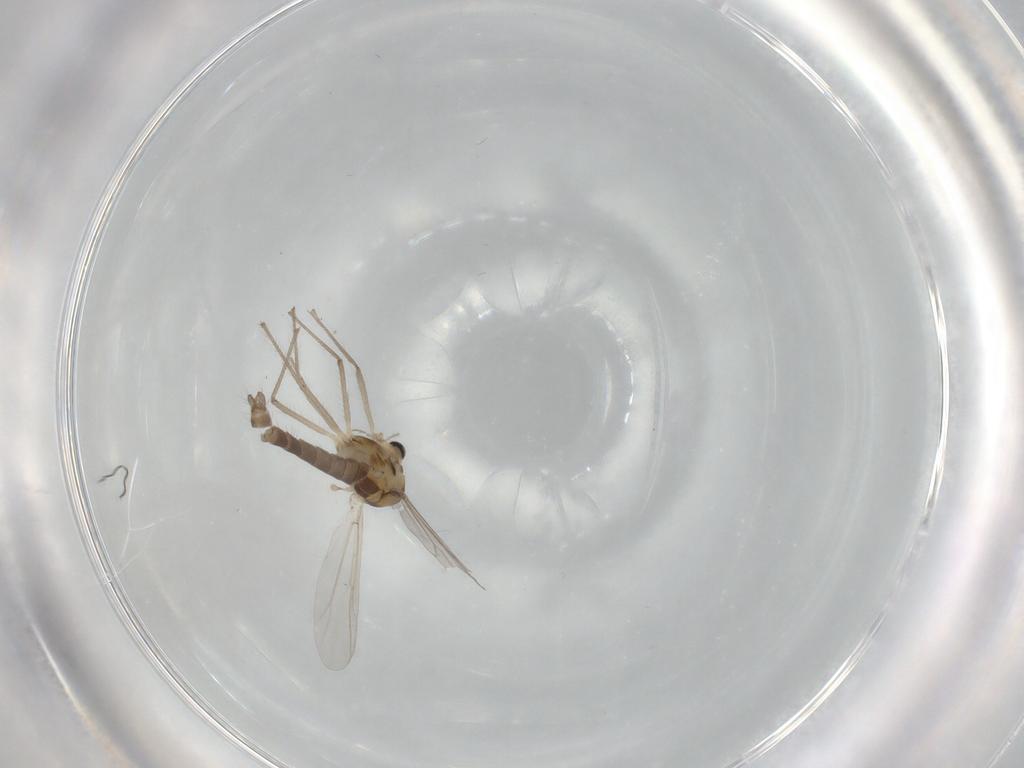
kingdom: Animalia
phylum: Arthropoda
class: Insecta
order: Diptera
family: Chironomidae
